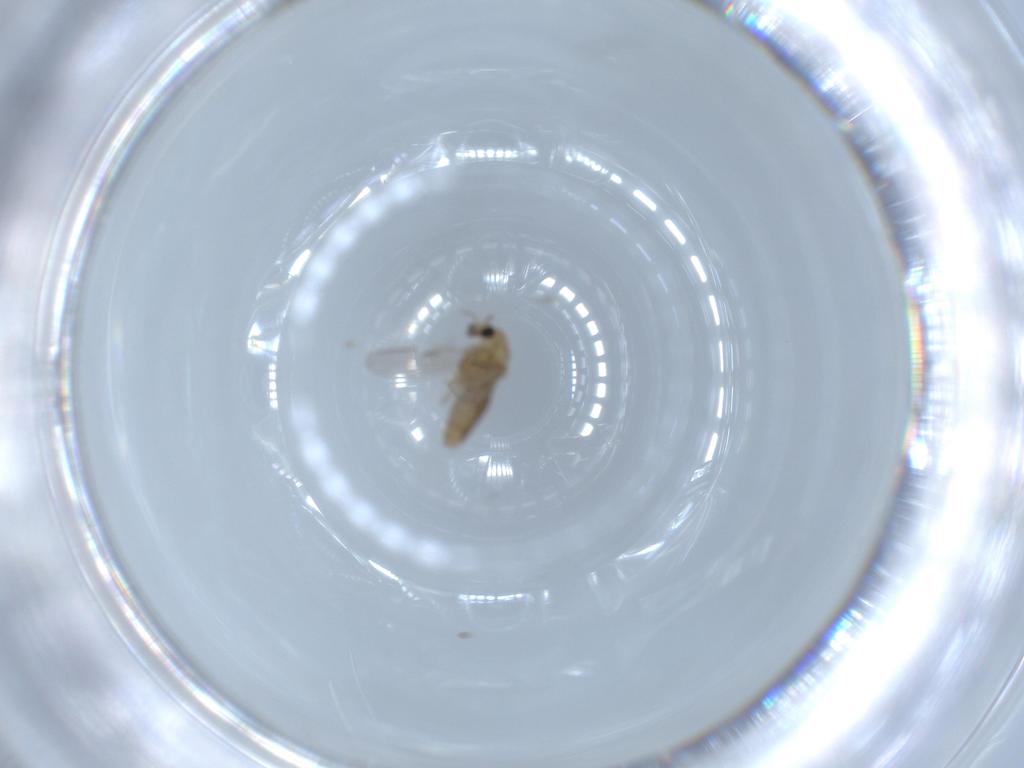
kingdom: Animalia
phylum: Arthropoda
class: Insecta
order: Diptera
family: Chironomidae
